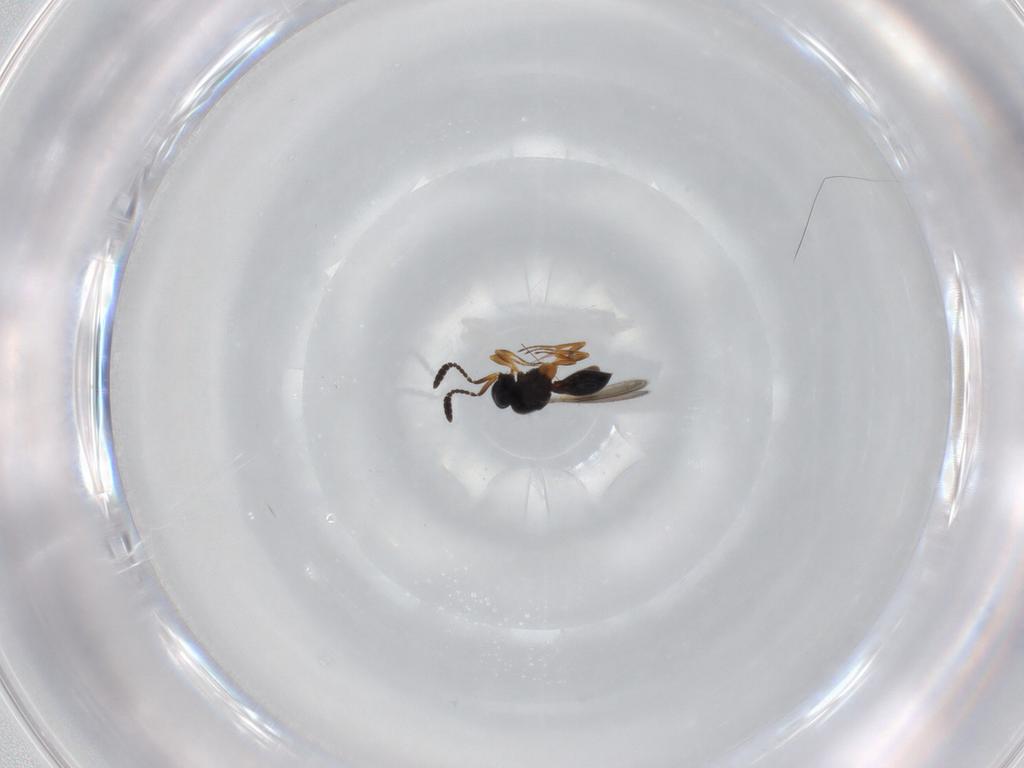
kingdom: Animalia
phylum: Arthropoda
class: Insecta
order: Hymenoptera
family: Scelionidae
